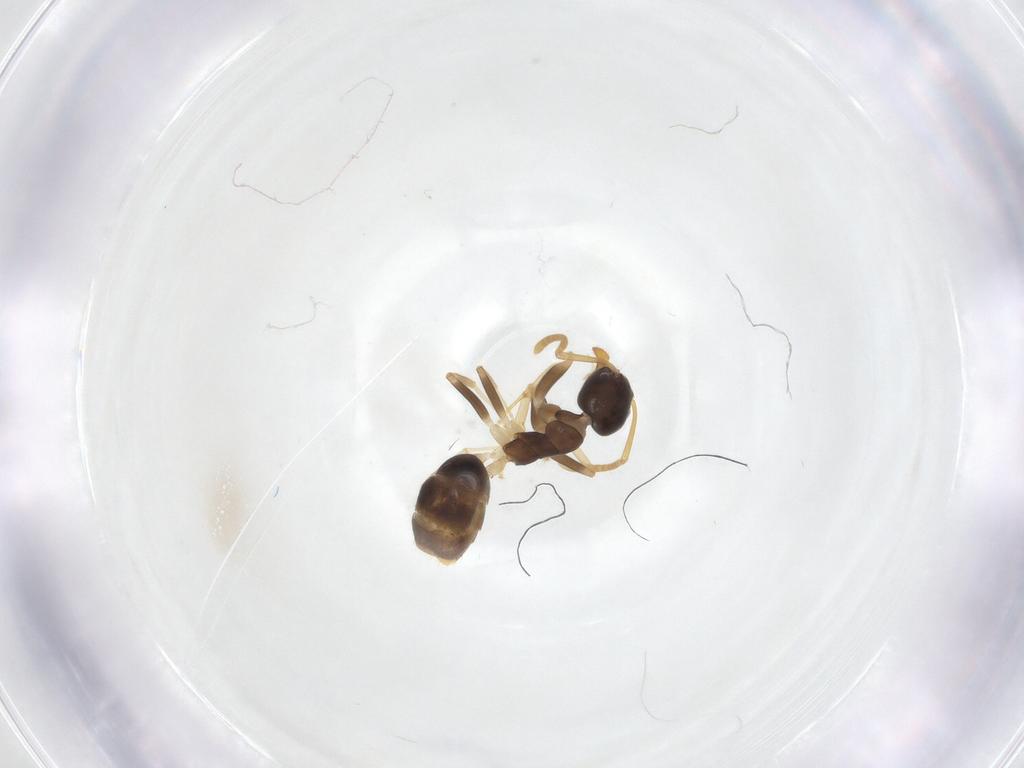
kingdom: Animalia
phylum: Arthropoda
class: Insecta
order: Hymenoptera
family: Formicidae
